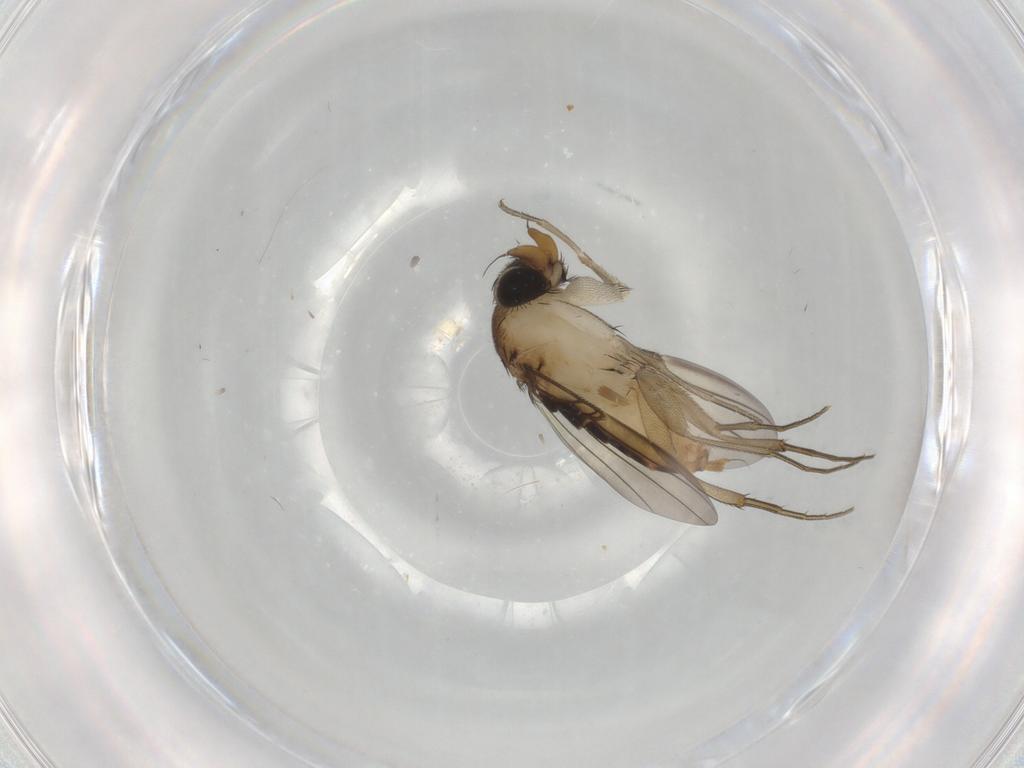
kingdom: Animalia
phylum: Arthropoda
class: Insecta
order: Diptera
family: Phoridae
